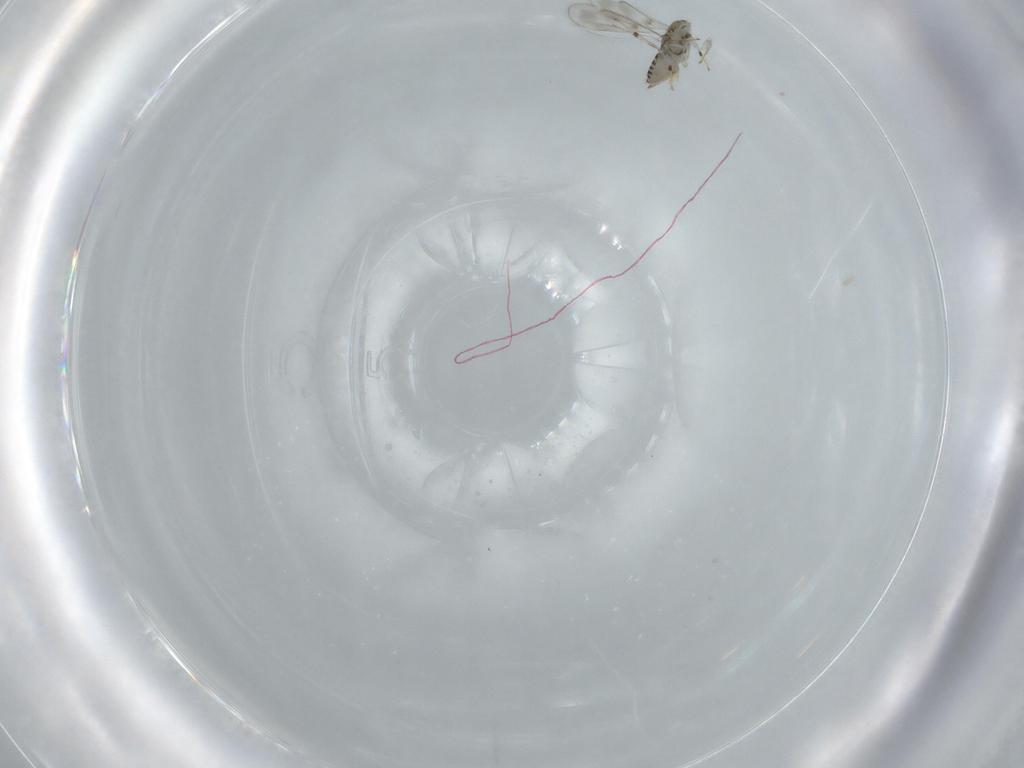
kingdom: Animalia
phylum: Arthropoda
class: Insecta
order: Hymenoptera
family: Aphelinidae
